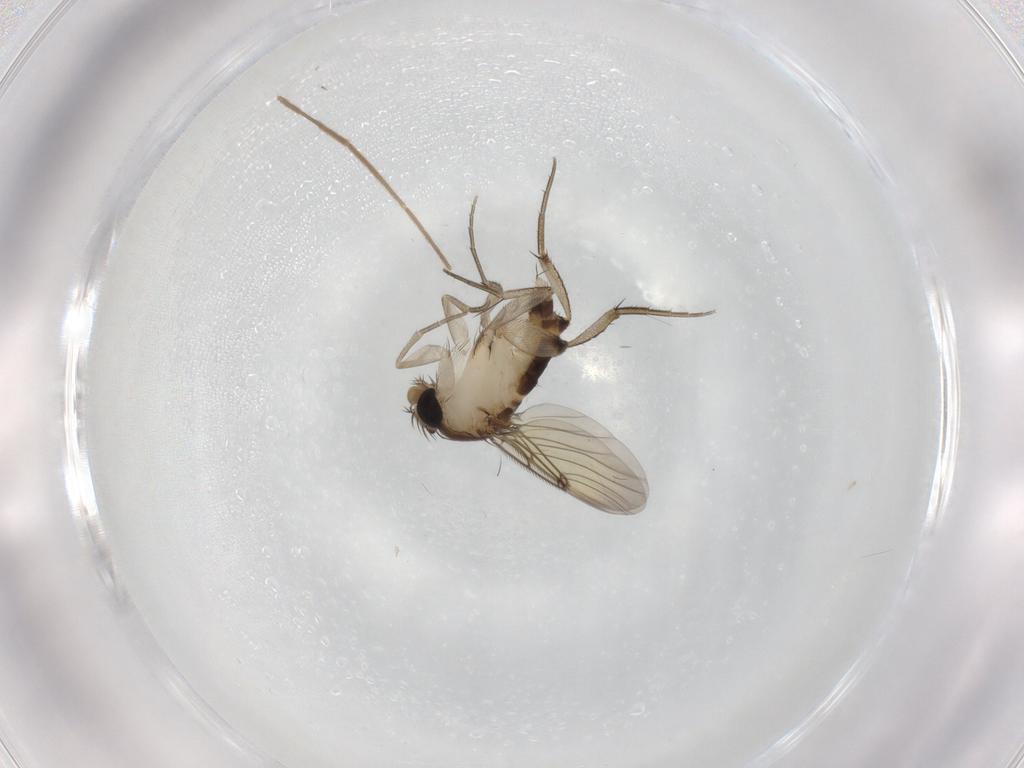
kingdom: Animalia
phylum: Arthropoda
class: Insecta
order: Diptera
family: Phoridae
